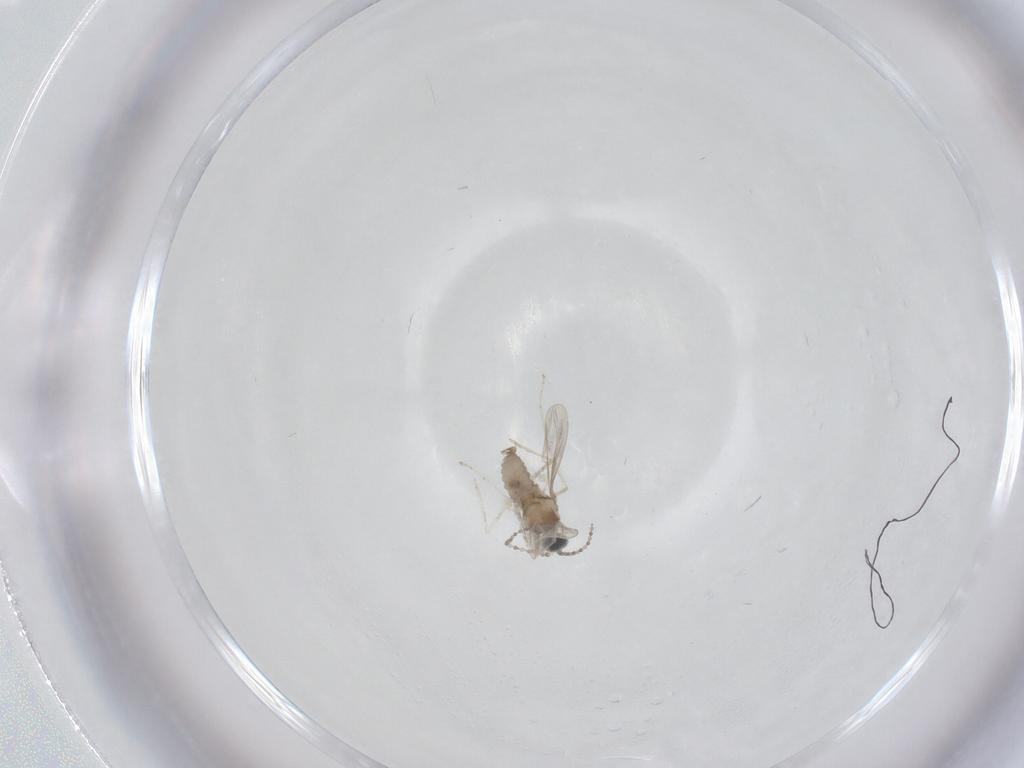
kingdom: Animalia
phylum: Arthropoda
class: Insecta
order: Diptera
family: Cecidomyiidae
